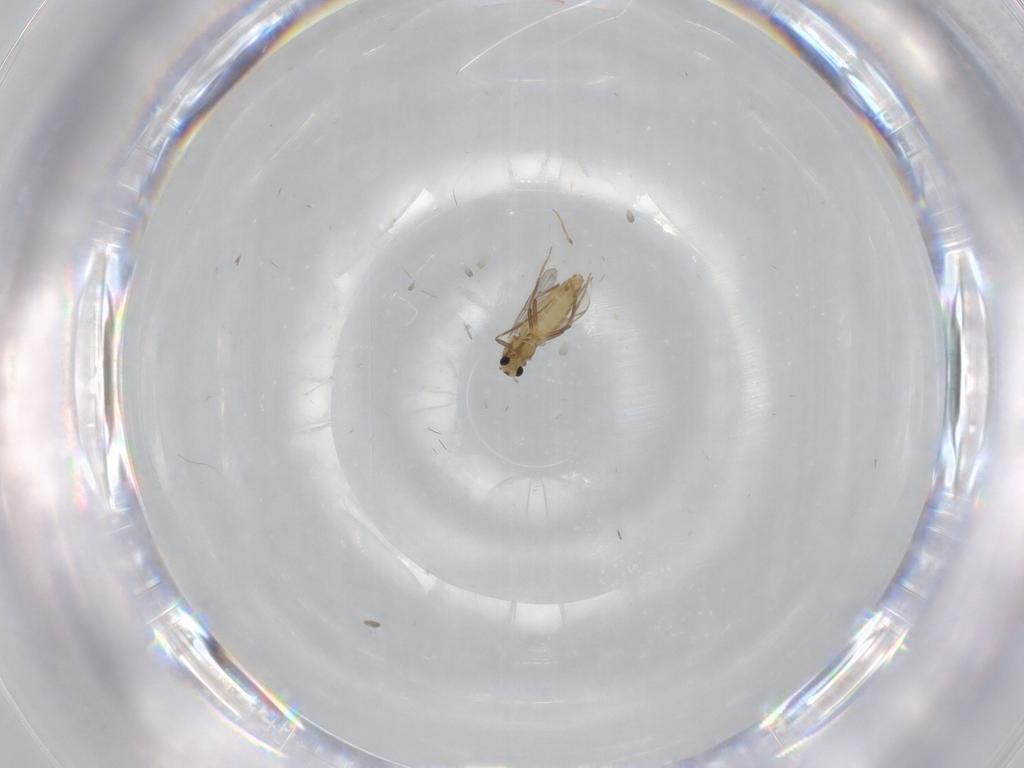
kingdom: Animalia
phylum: Arthropoda
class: Insecta
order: Diptera
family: Chironomidae
